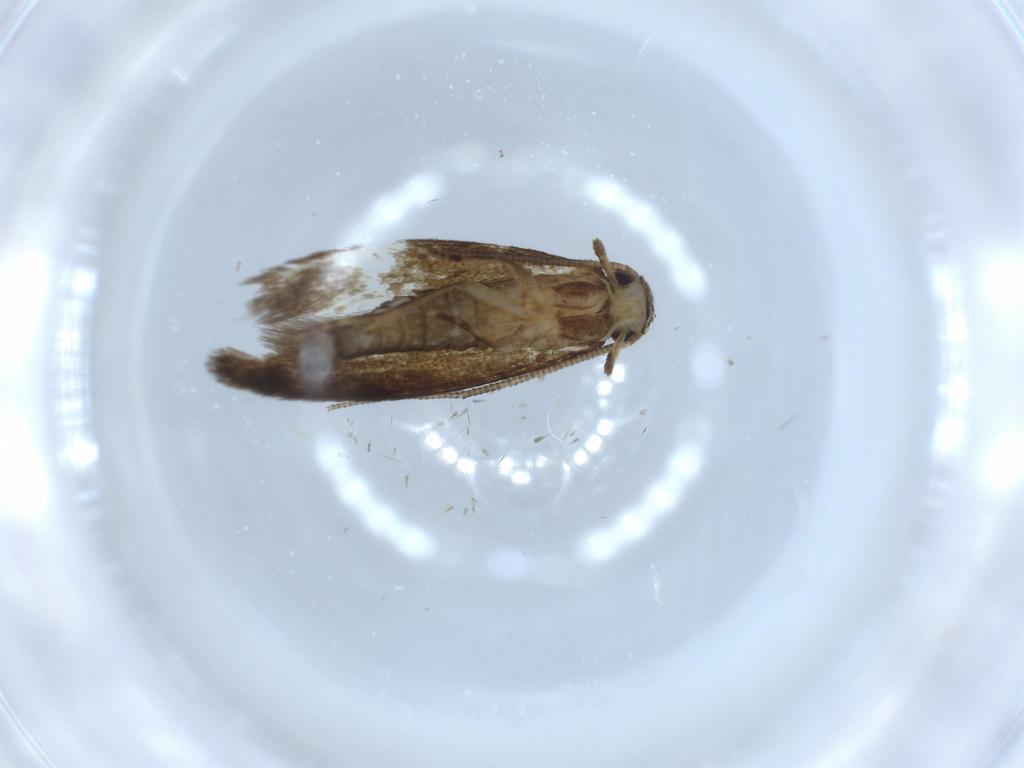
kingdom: Animalia
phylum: Arthropoda
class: Insecta
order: Lepidoptera
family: Tineidae
